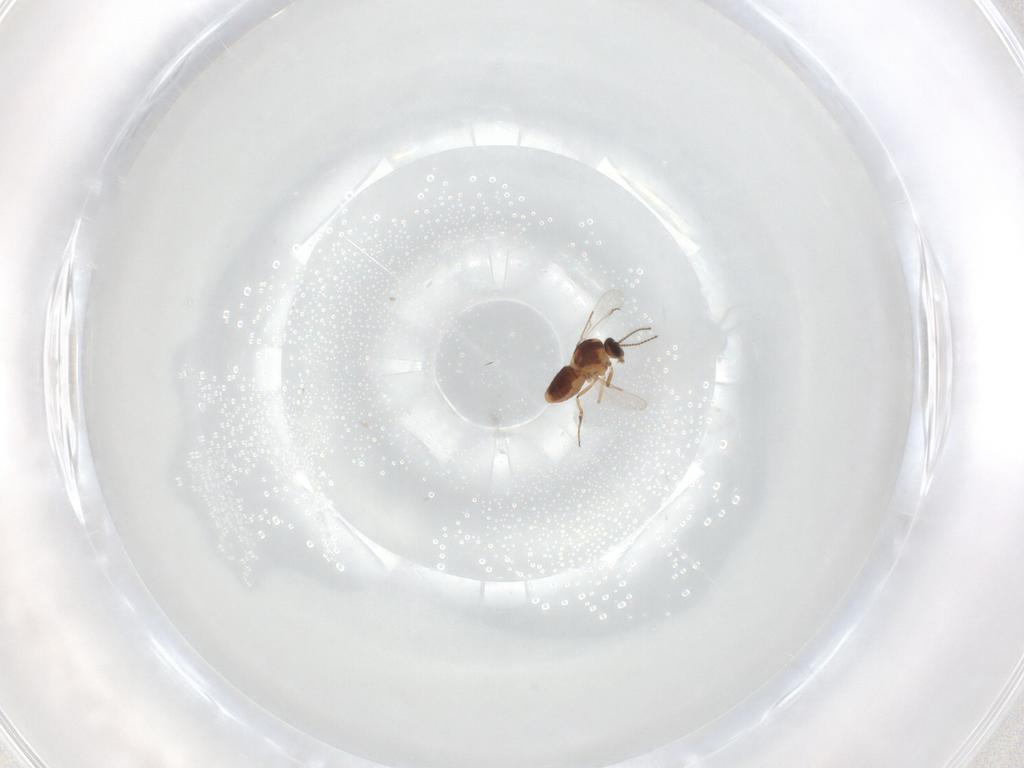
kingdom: Animalia
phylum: Arthropoda
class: Insecta
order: Diptera
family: Ceratopogonidae
